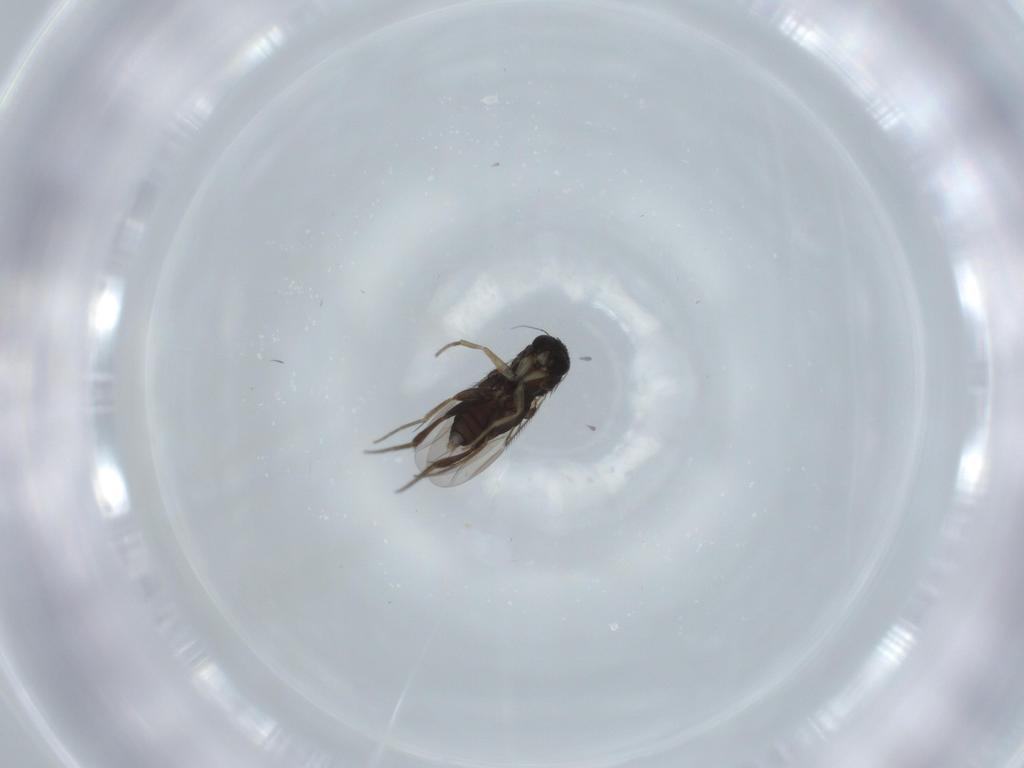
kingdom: Animalia
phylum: Arthropoda
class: Insecta
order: Diptera
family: Phoridae
